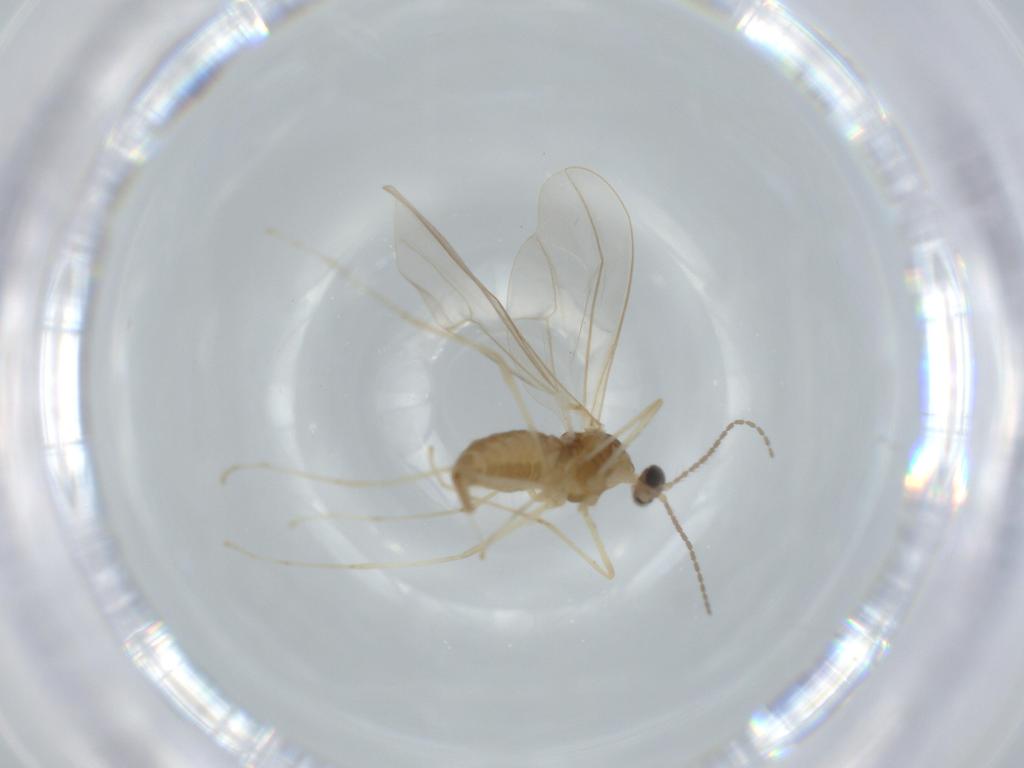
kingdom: Animalia
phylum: Arthropoda
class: Insecta
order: Diptera
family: Cecidomyiidae
